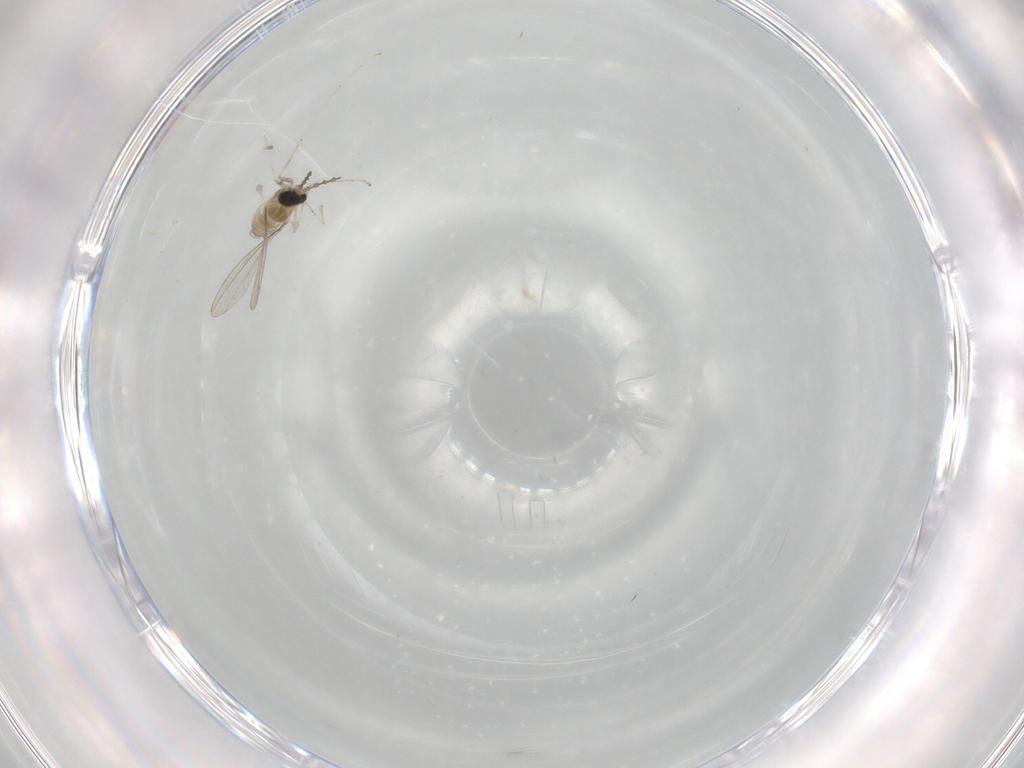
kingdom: Animalia
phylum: Arthropoda
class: Insecta
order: Diptera
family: Cecidomyiidae
